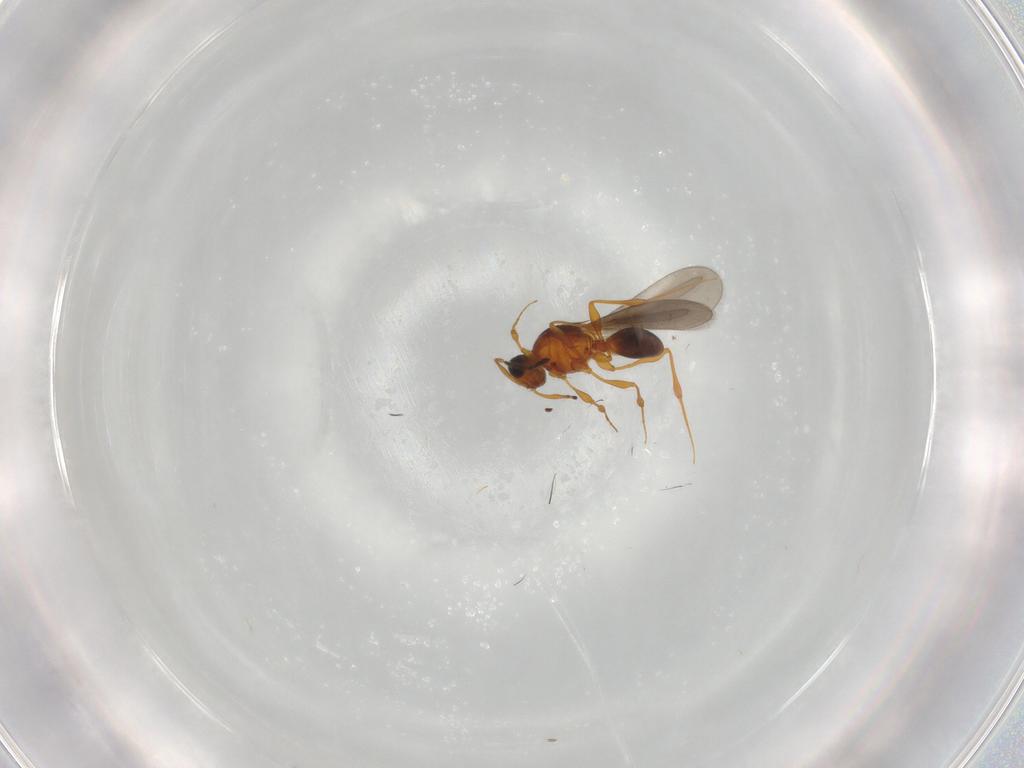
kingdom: Animalia
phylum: Arthropoda
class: Insecta
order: Hymenoptera
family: Platygastridae
